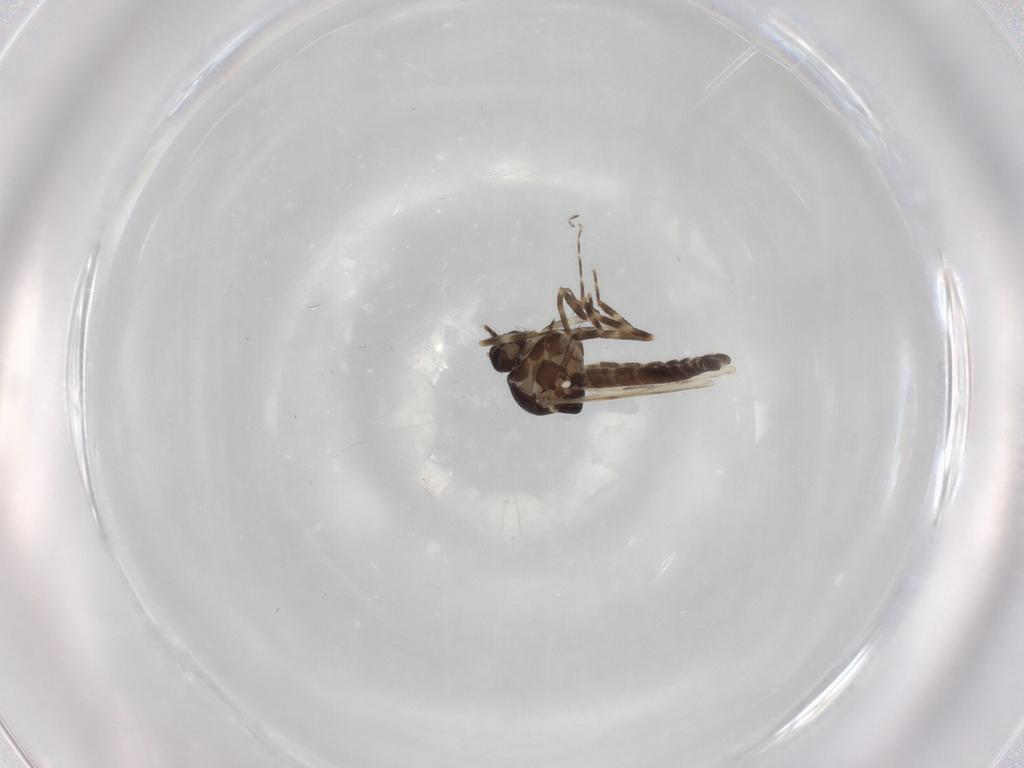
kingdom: Animalia
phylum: Arthropoda
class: Insecta
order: Diptera
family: Ceratopogonidae
